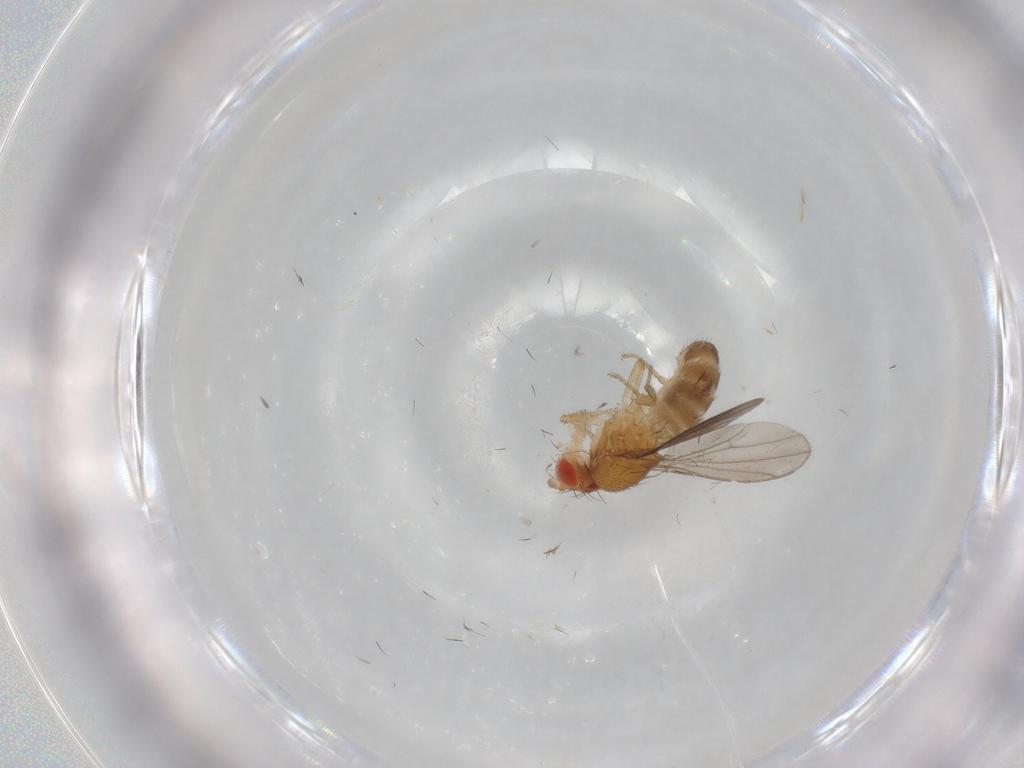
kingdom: Animalia
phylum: Arthropoda
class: Insecta
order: Diptera
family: Drosophilidae
